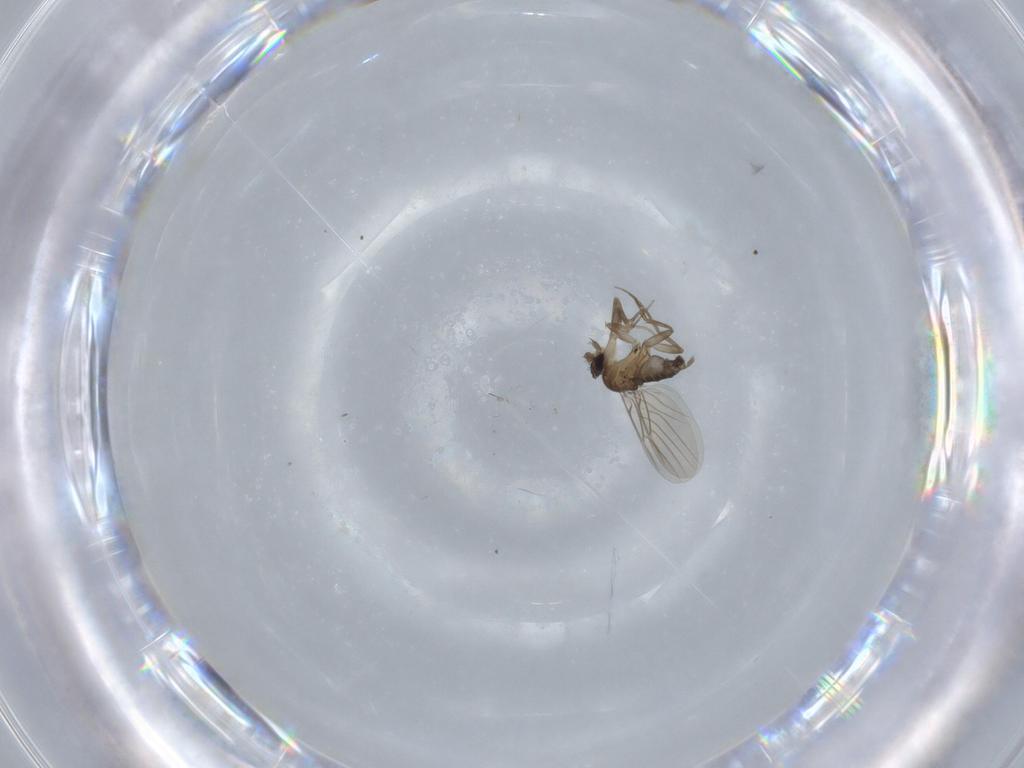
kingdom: Animalia
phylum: Arthropoda
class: Insecta
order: Diptera
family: Phoridae
